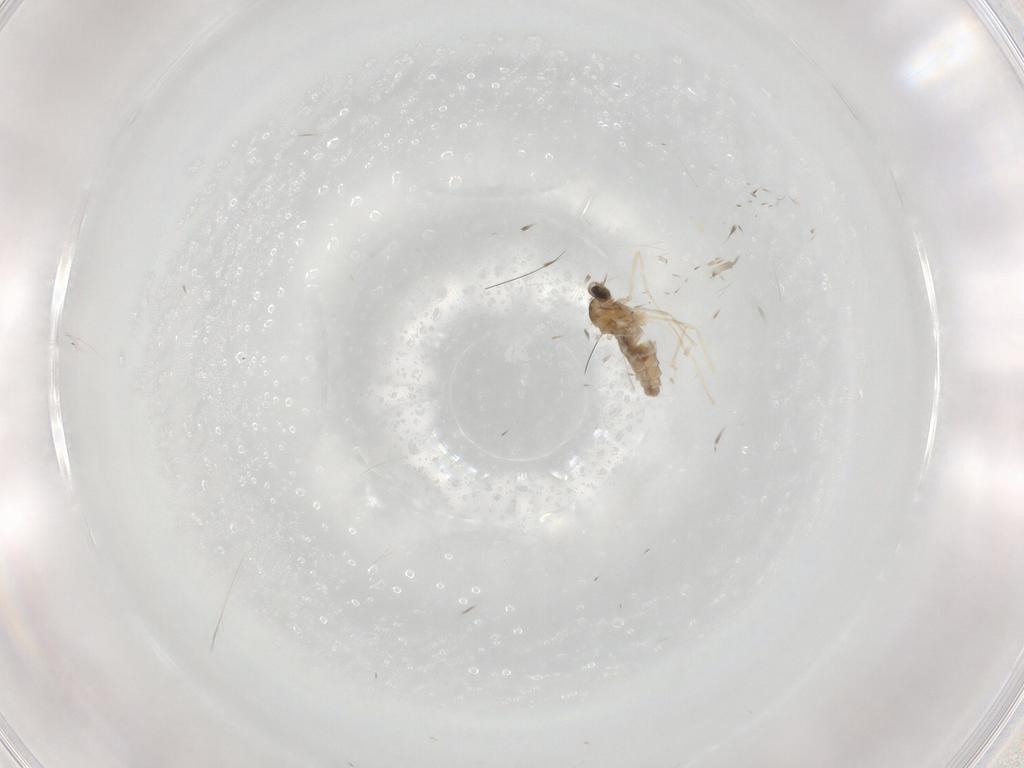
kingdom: Animalia
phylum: Arthropoda
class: Insecta
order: Diptera
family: Cecidomyiidae
